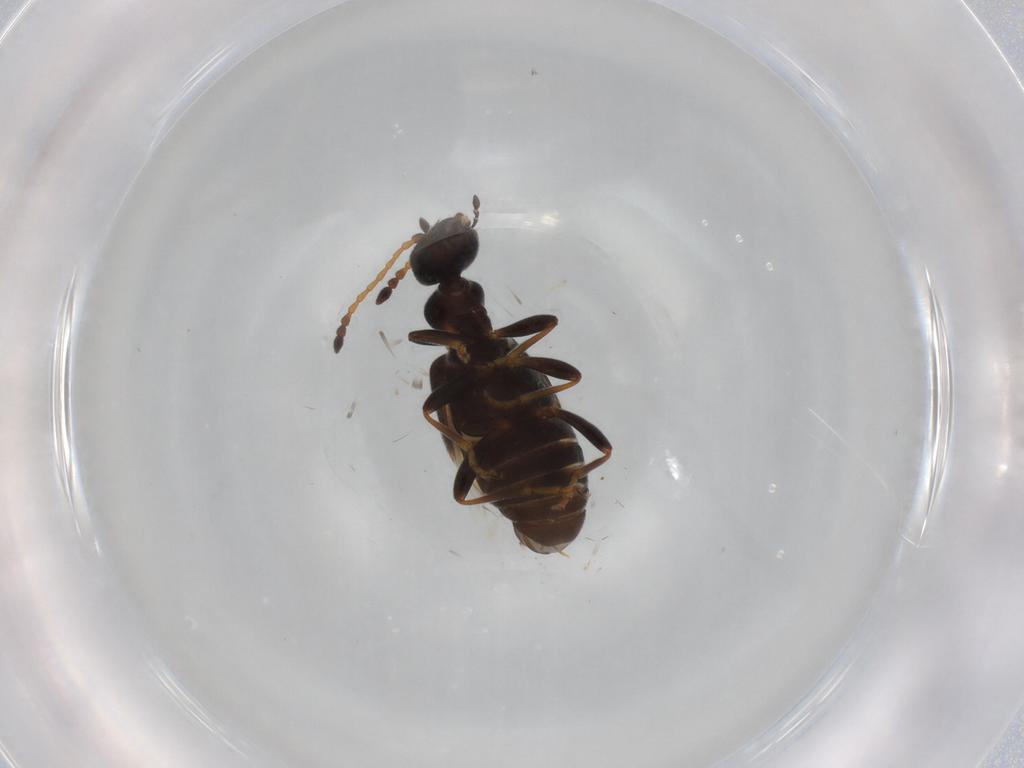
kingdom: Animalia
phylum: Arthropoda
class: Insecta
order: Coleoptera
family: Anthicidae
